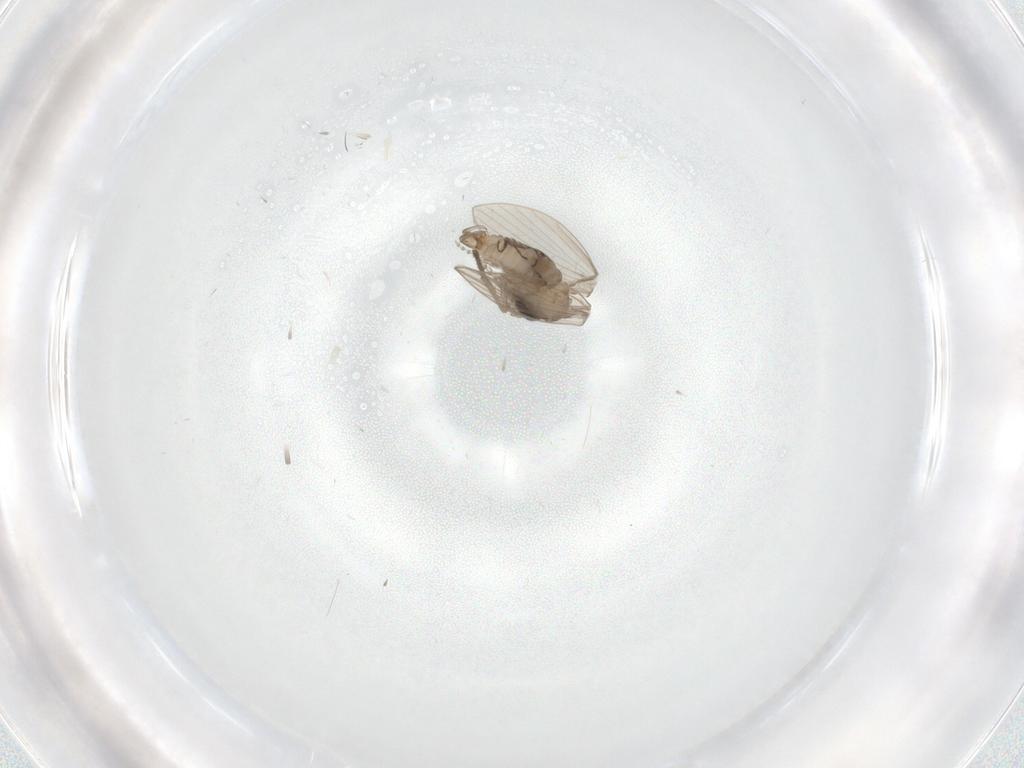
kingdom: Animalia
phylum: Arthropoda
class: Insecta
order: Diptera
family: Psychodidae
